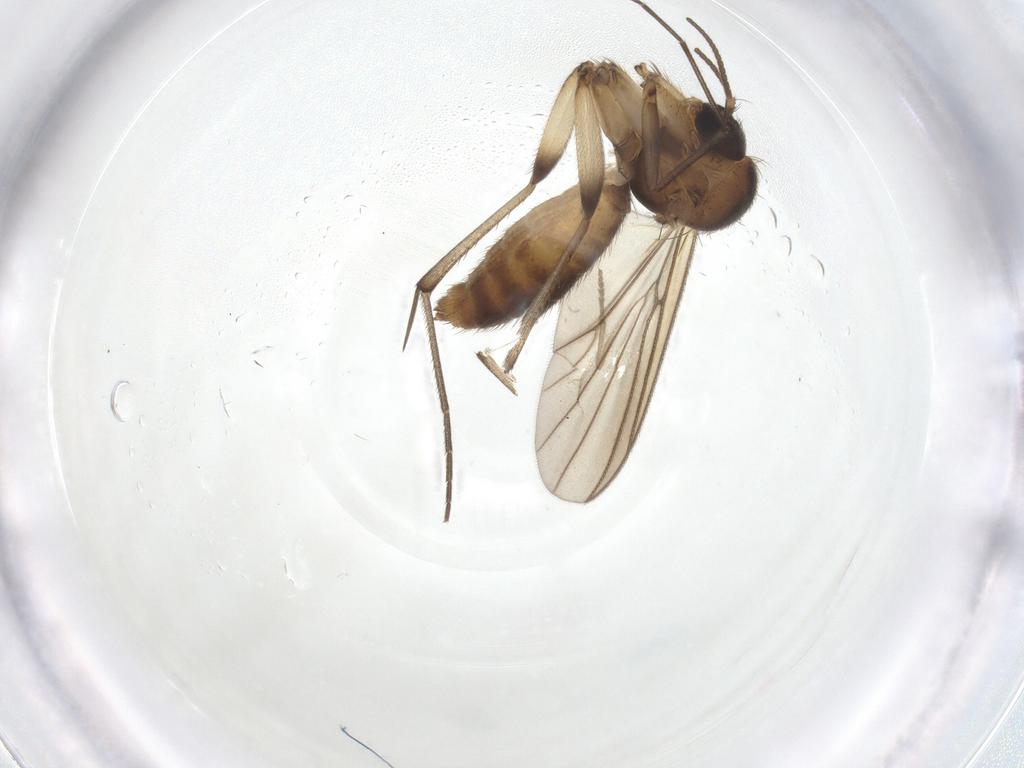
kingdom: Animalia
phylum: Arthropoda
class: Insecta
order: Diptera
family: Mycetophilidae
